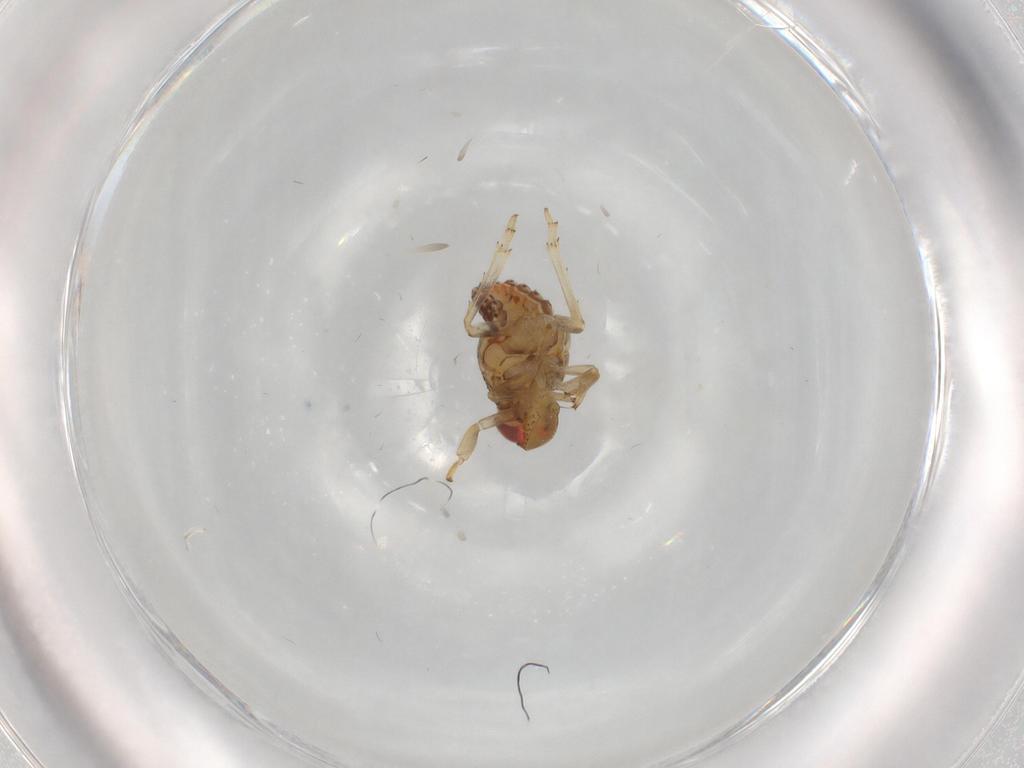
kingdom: Animalia
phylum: Arthropoda
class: Insecta
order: Hemiptera
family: Issidae
